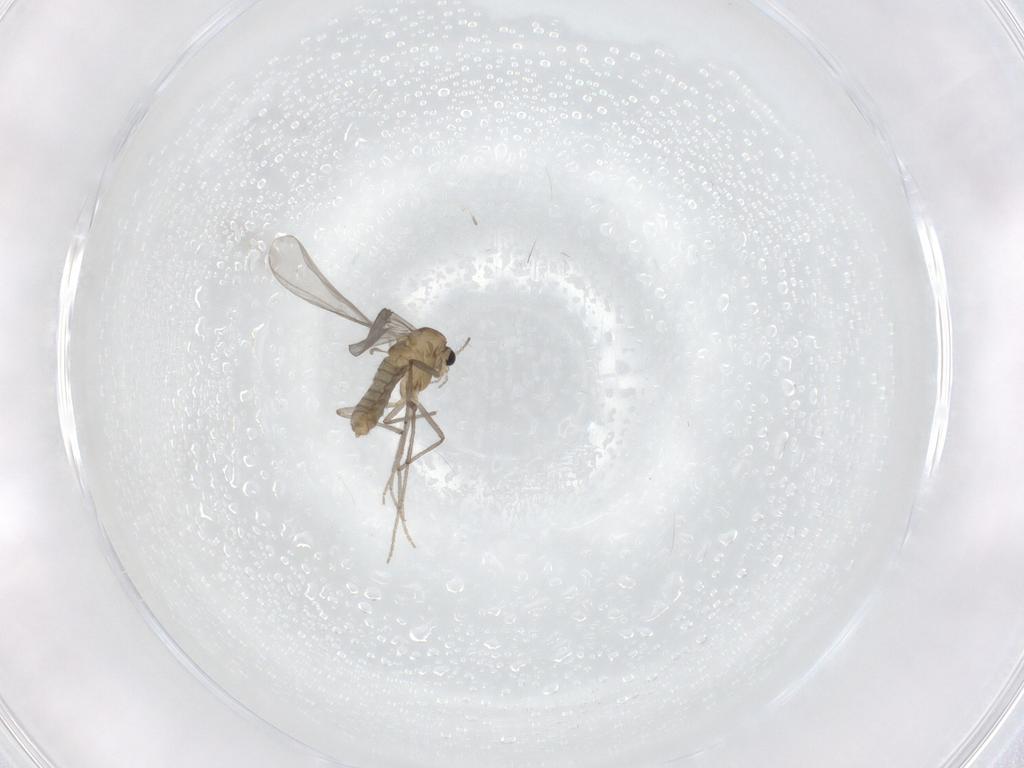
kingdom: Animalia
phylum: Arthropoda
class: Insecta
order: Diptera
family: Chironomidae
